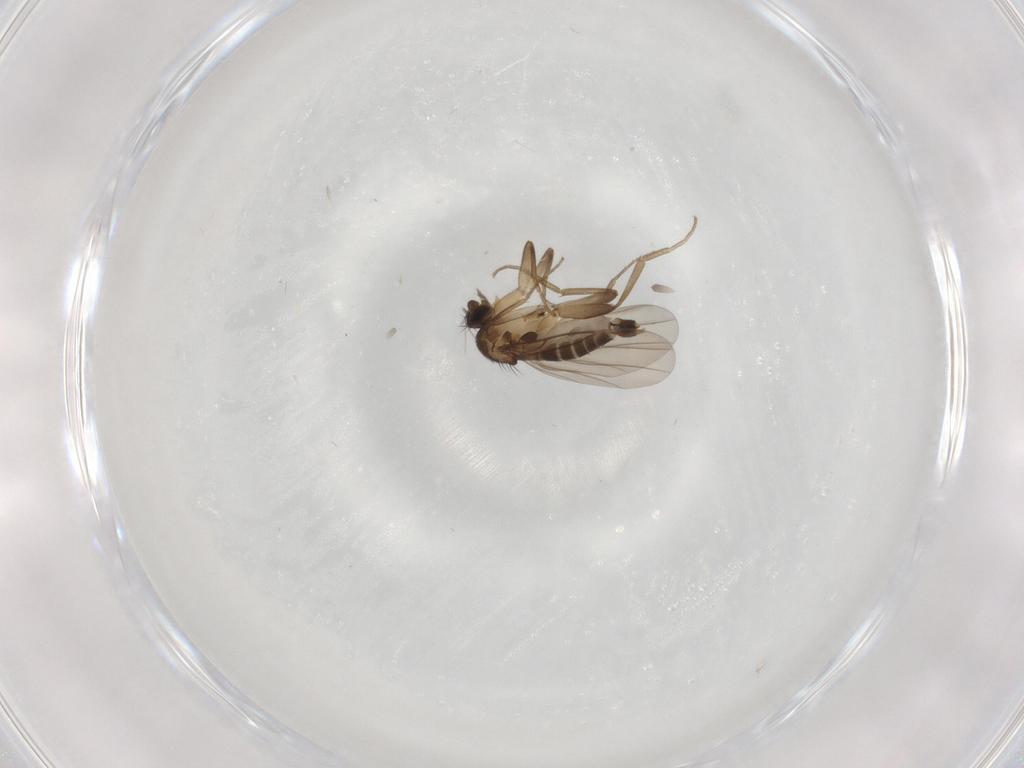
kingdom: Animalia
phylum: Arthropoda
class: Insecta
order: Diptera
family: Phoridae
